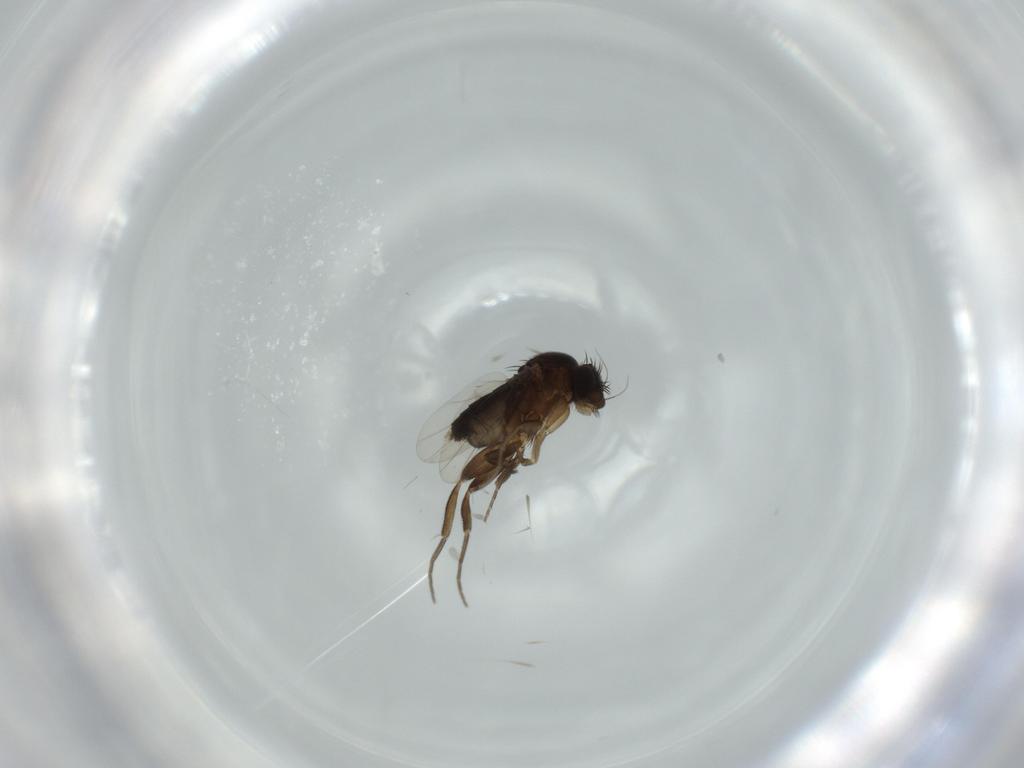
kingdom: Animalia
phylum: Arthropoda
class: Insecta
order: Diptera
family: Phoridae
